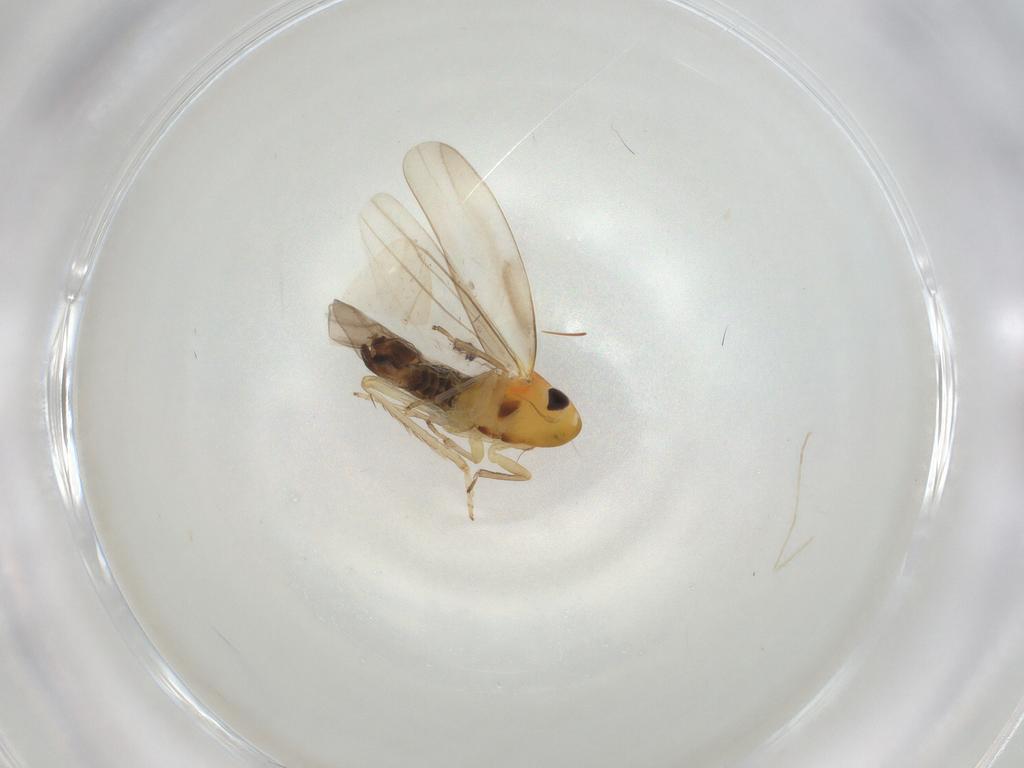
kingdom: Animalia
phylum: Arthropoda
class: Insecta
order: Hemiptera
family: Cicadellidae
